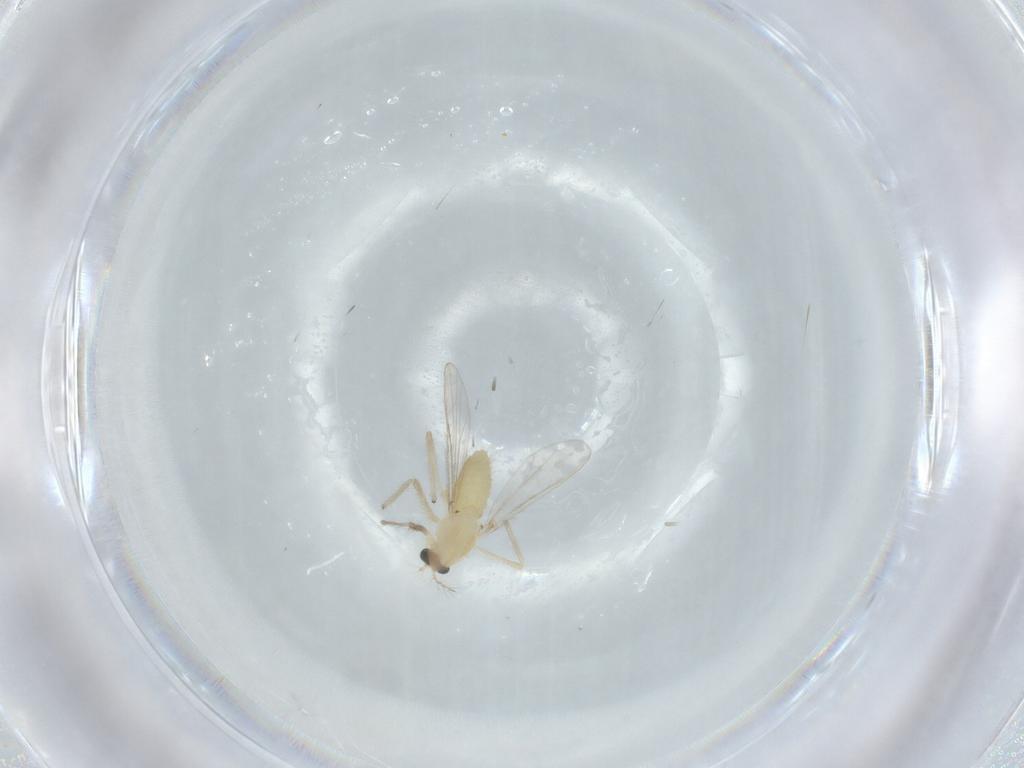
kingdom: Animalia
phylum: Arthropoda
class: Insecta
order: Diptera
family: Chironomidae
